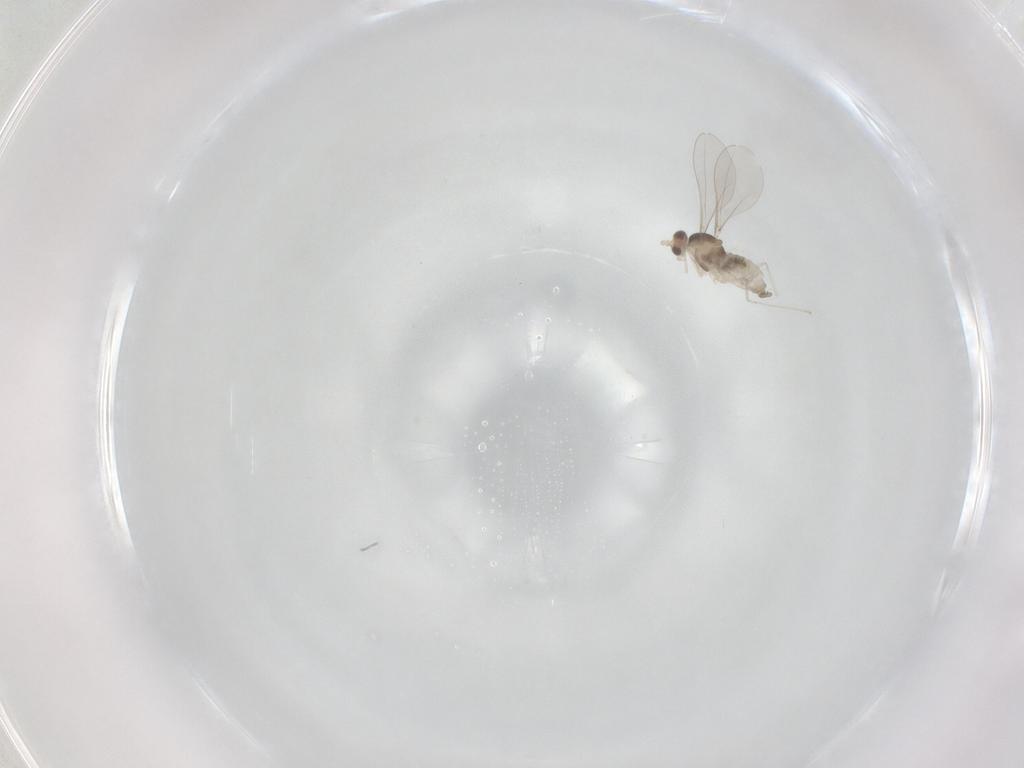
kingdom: Animalia
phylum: Arthropoda
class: Insecta
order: Diptera
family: Cecidomyiidae
